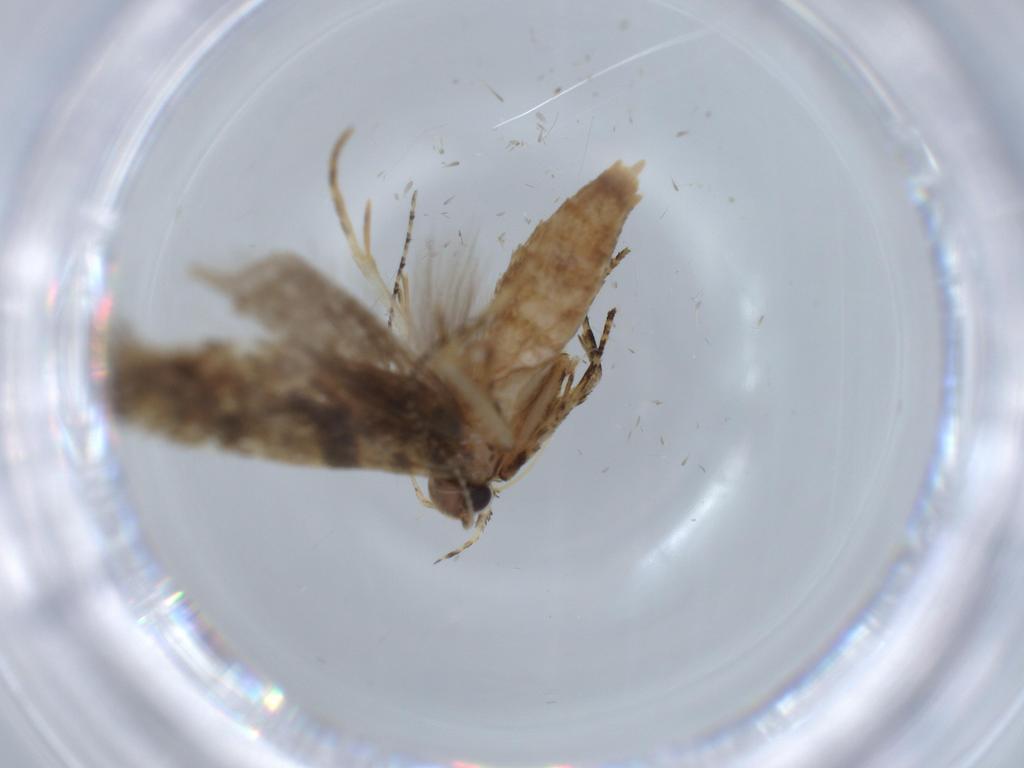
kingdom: Animalia
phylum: Arthropoda
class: Insecta
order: Lepidoptera
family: Gelechiidae
